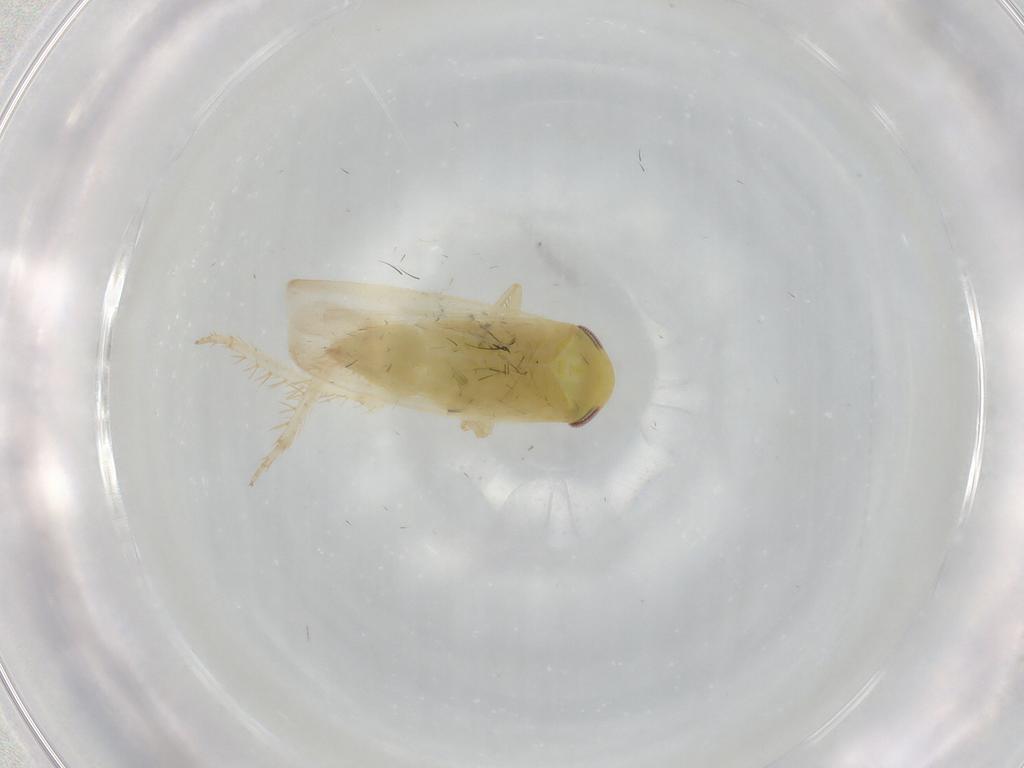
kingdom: Animalia
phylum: Arthropoda
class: Insecta
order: Hemiptera
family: Cicadellidae
